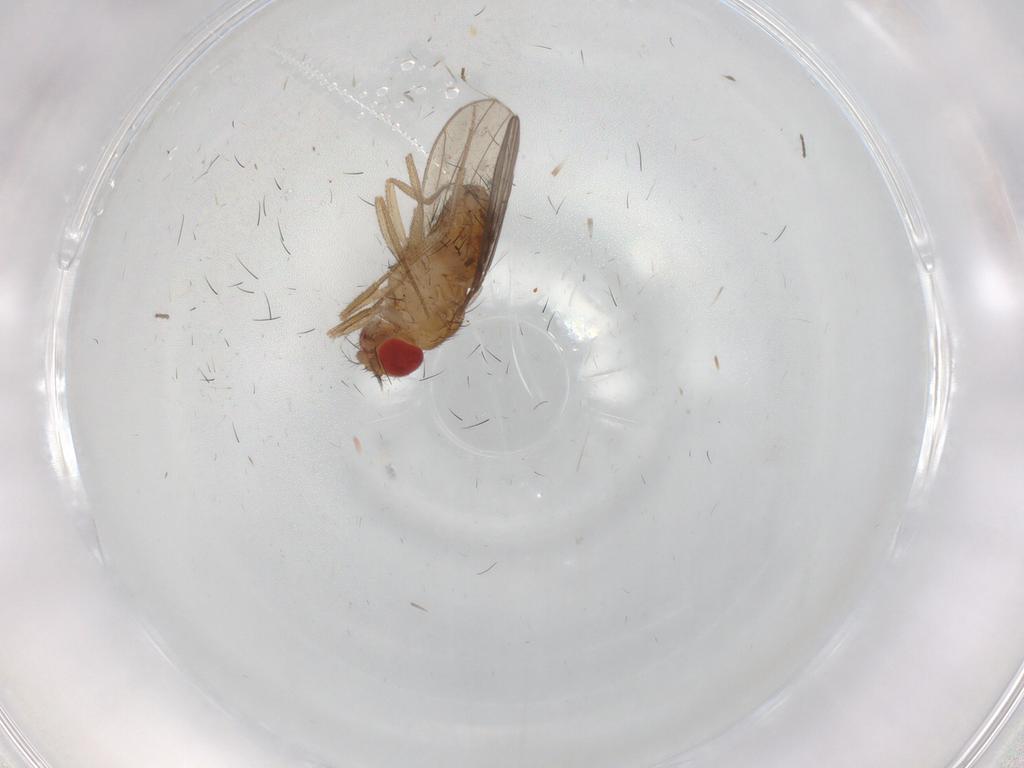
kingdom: Animalia
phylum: Arthropoda
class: Insecta
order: Diptera
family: Drosophilidae
